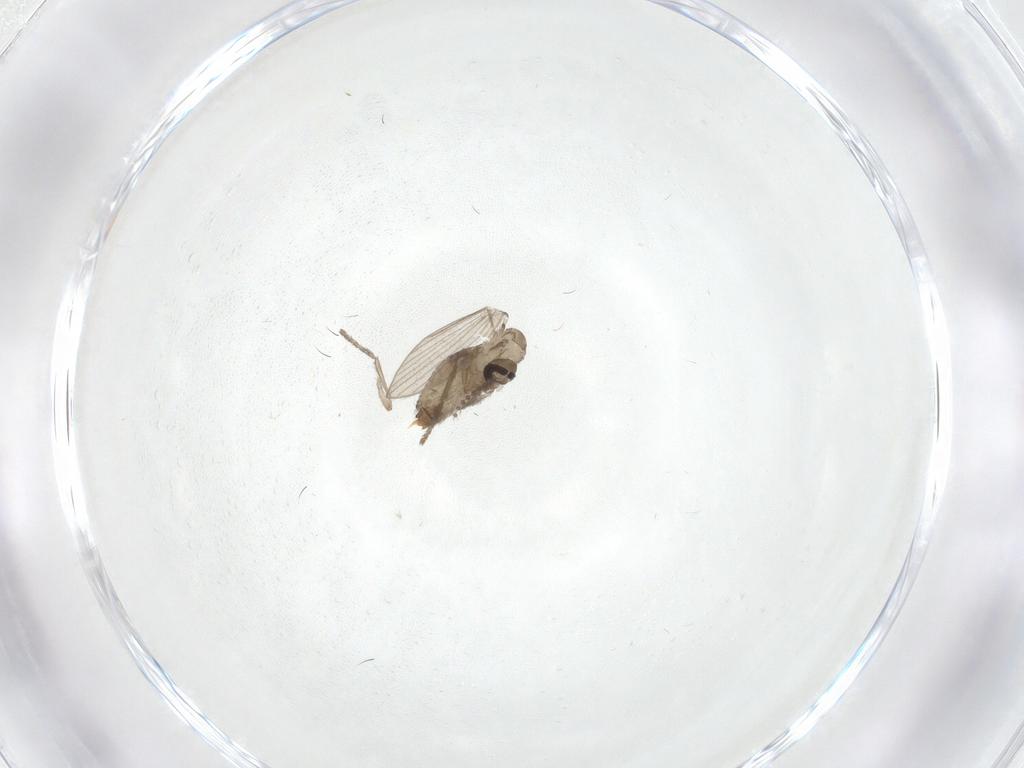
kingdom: Animalia
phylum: Arthropoda
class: Insecta
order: Diptera
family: Psychodidae
